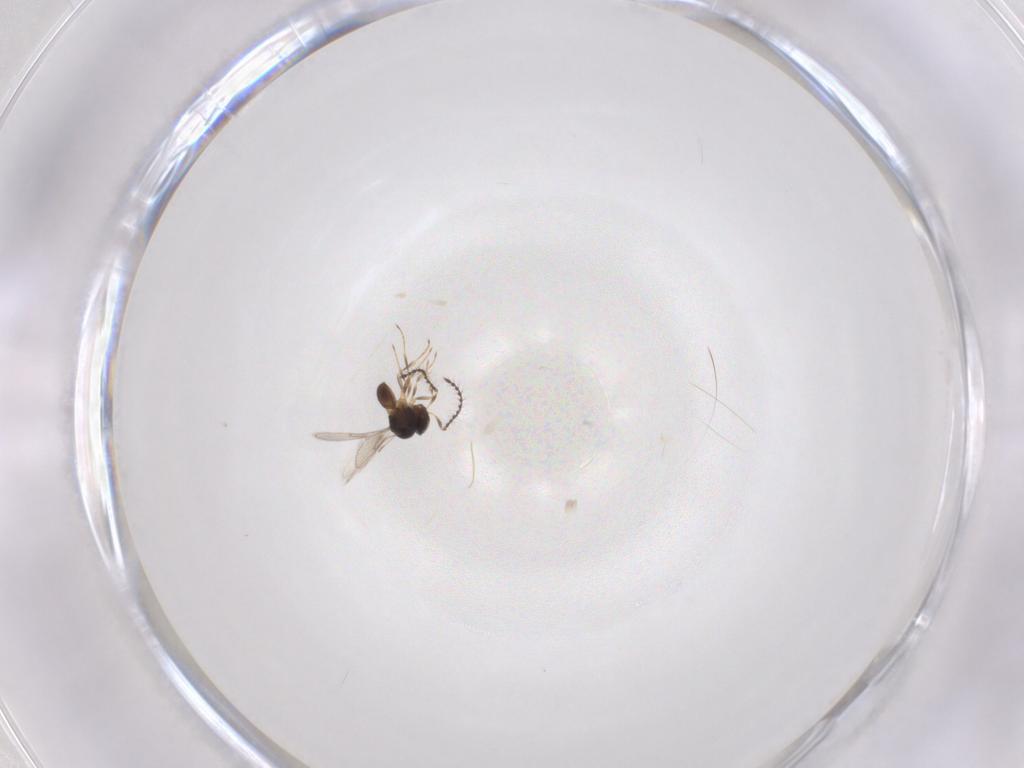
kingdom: Animalia
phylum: Arthropoda
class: Insecta
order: Hymenoptera
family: Scelionidae
